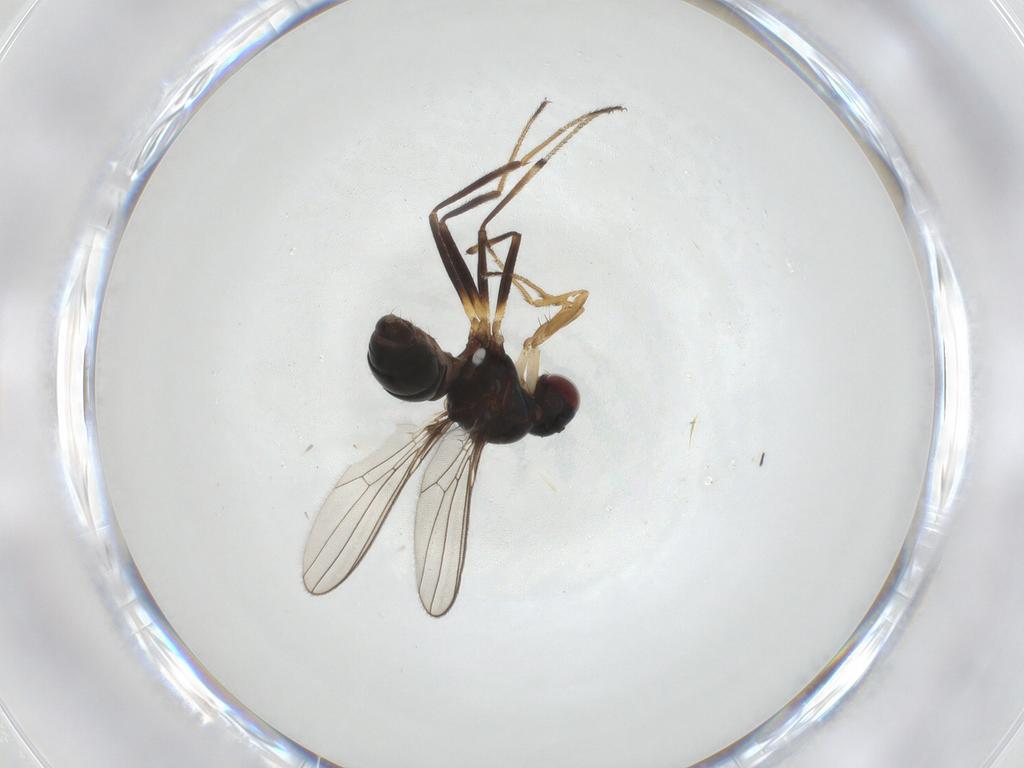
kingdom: Animalia
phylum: Arthropoda
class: Insecta
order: Diptera
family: Sepsidae
